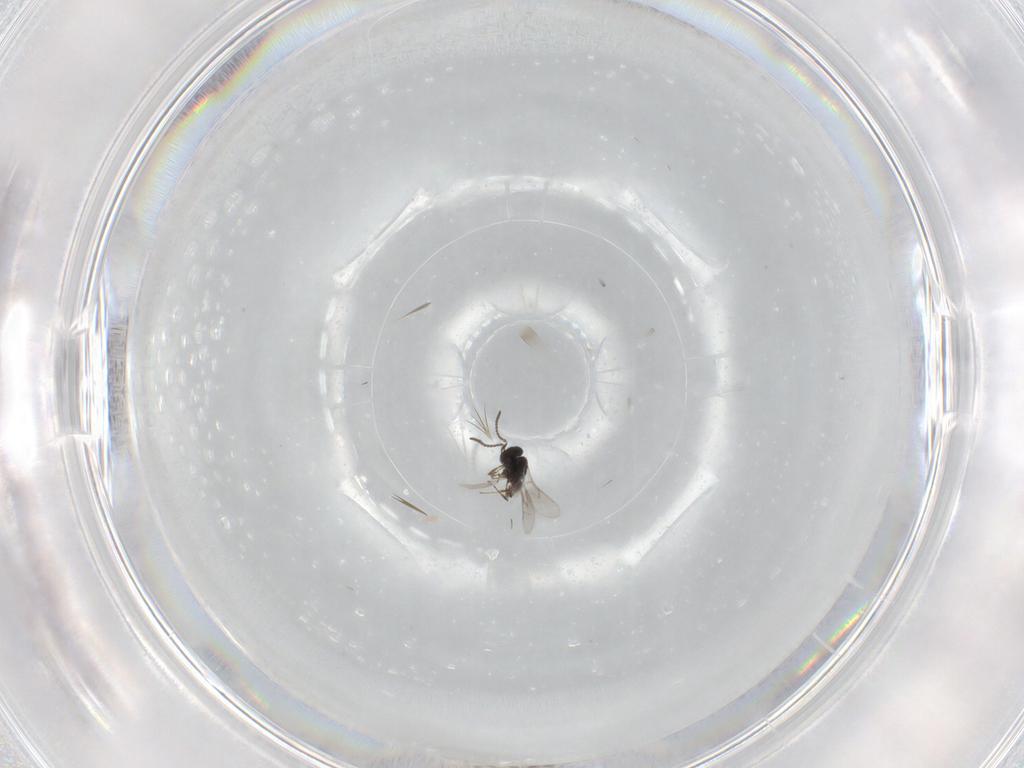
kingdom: Animalia
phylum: Arthropoda
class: Insecta
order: Hymenoptera
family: Scelionidae
